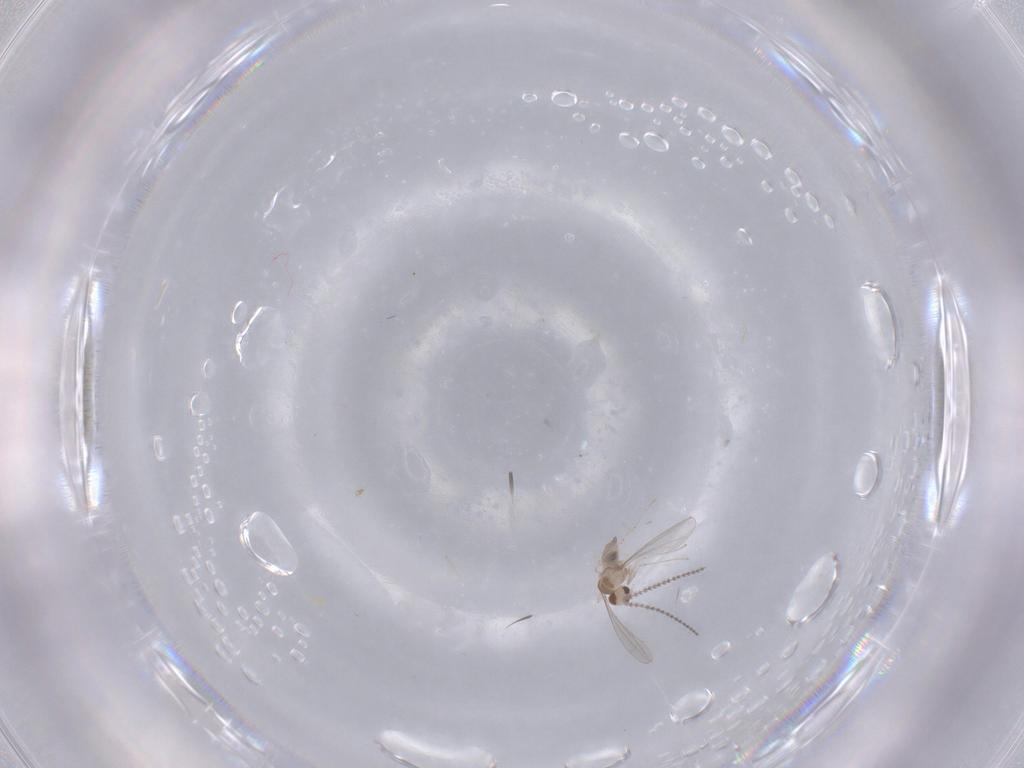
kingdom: Animalia
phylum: Arthropoda
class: Insecta
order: Diptera
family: Cecidomyiidae
